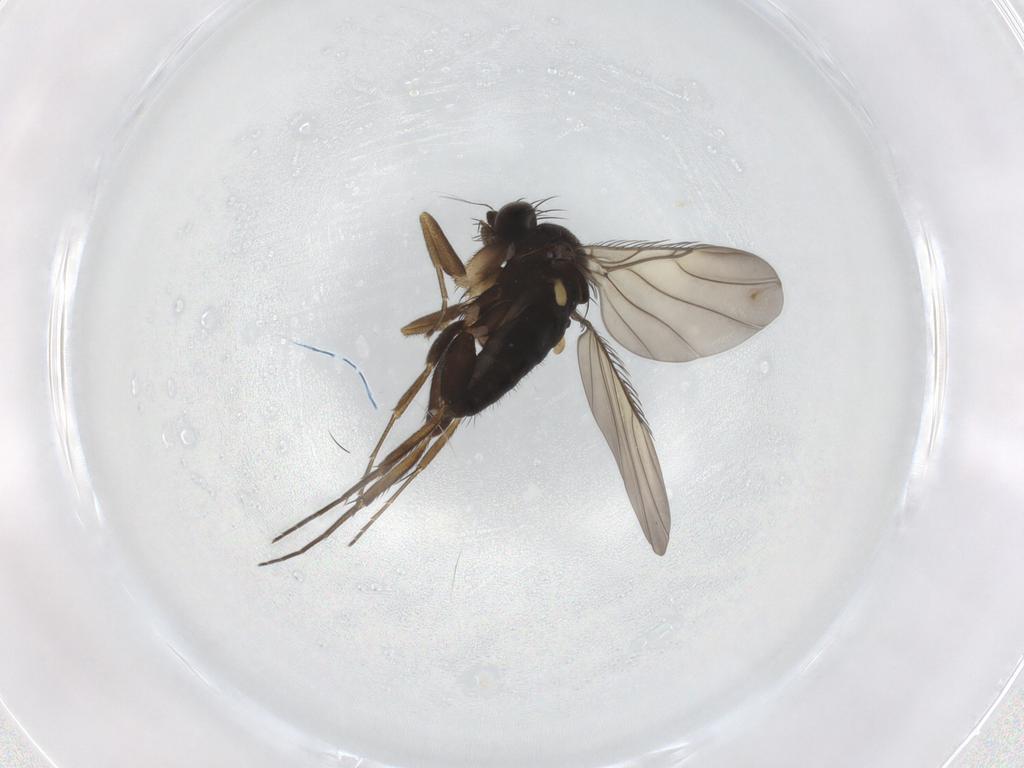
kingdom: Animalia
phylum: Arthropoda
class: Insecta
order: Diptera
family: Phoridae
